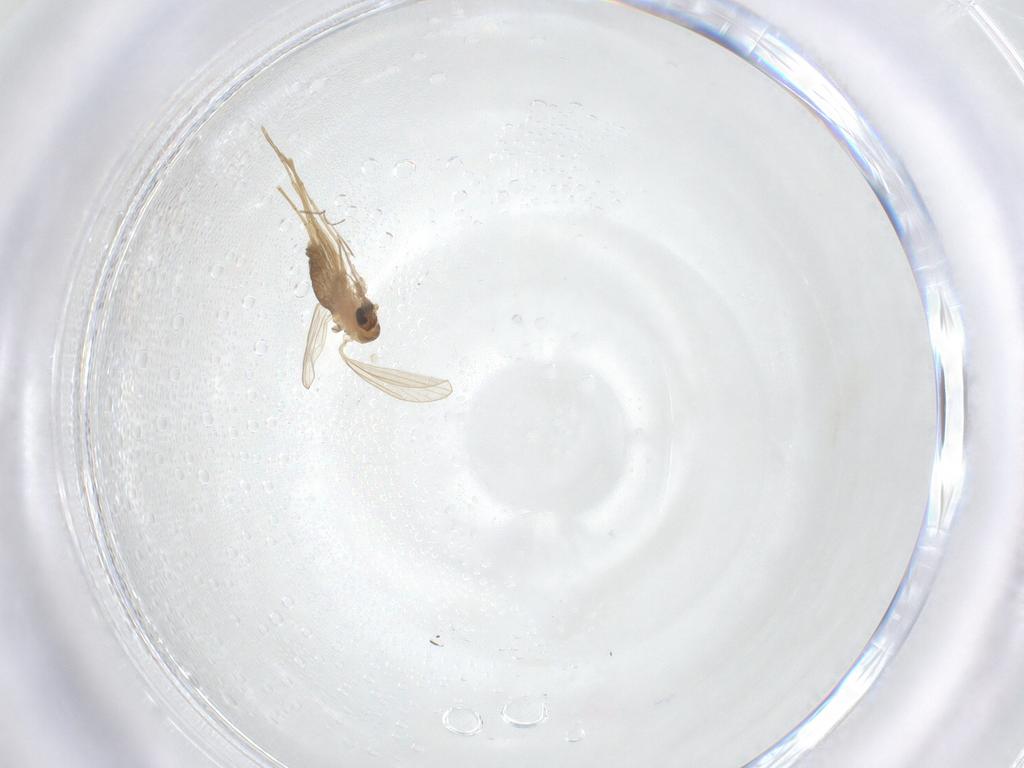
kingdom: Animalia
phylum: Arthropoda
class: Insecta
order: Diptera
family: Psychodidae
